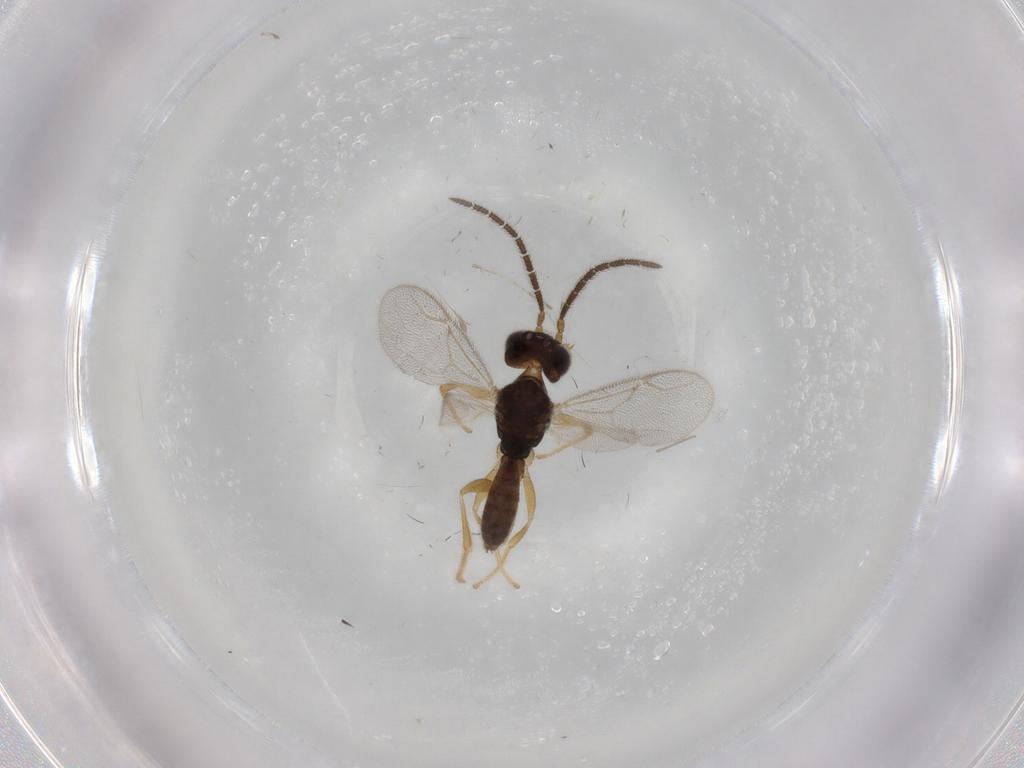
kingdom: Animalia
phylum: Arthropoda
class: Insecta
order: Hymenoptera
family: Dryinidae
